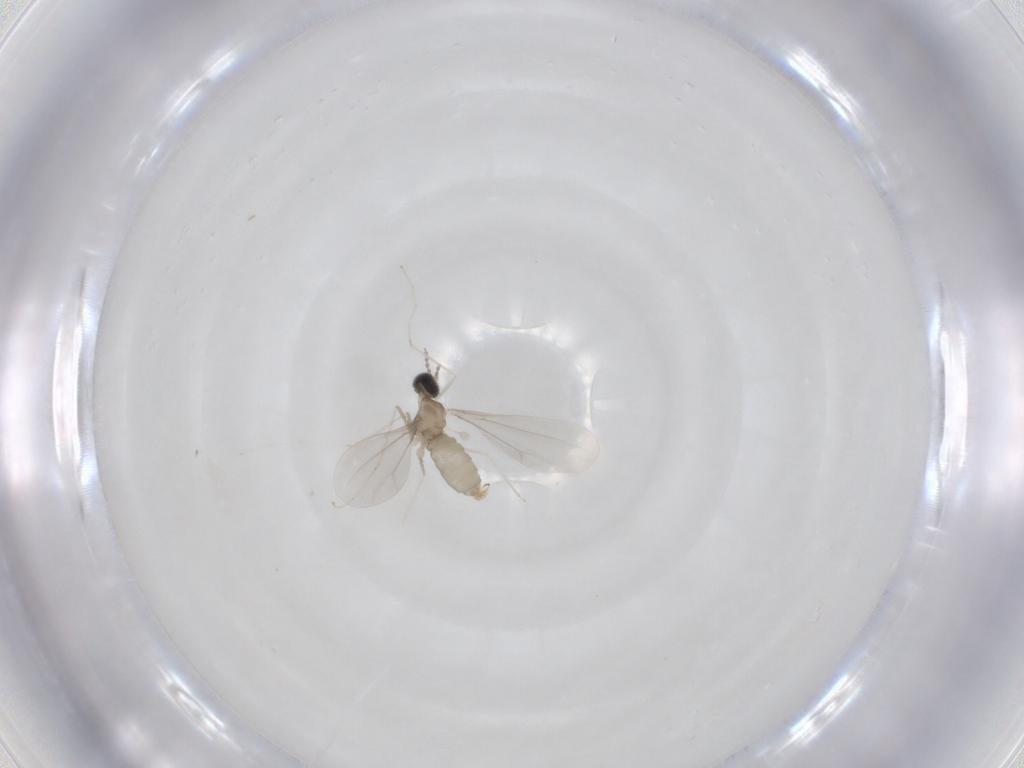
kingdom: Animalia
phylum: Arthropoda
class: Insecta
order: Diptera
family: Cecidomyiidae
